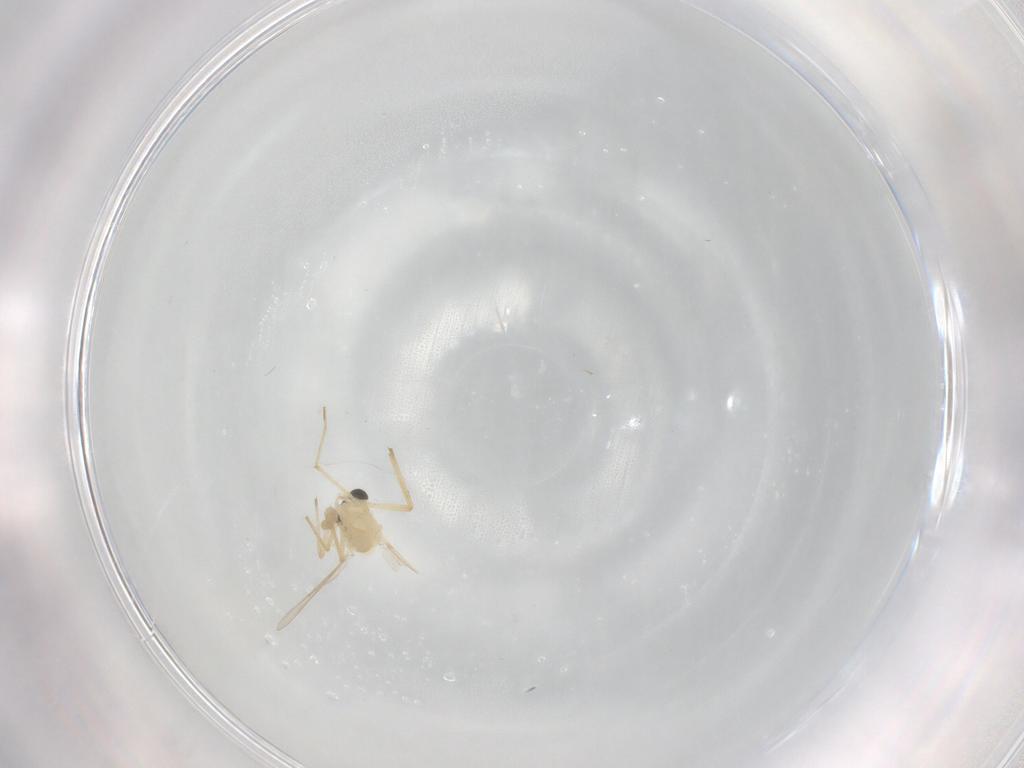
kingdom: Animalia
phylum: Arthropoda
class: Insecta
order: Diptera
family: Chironomidae
